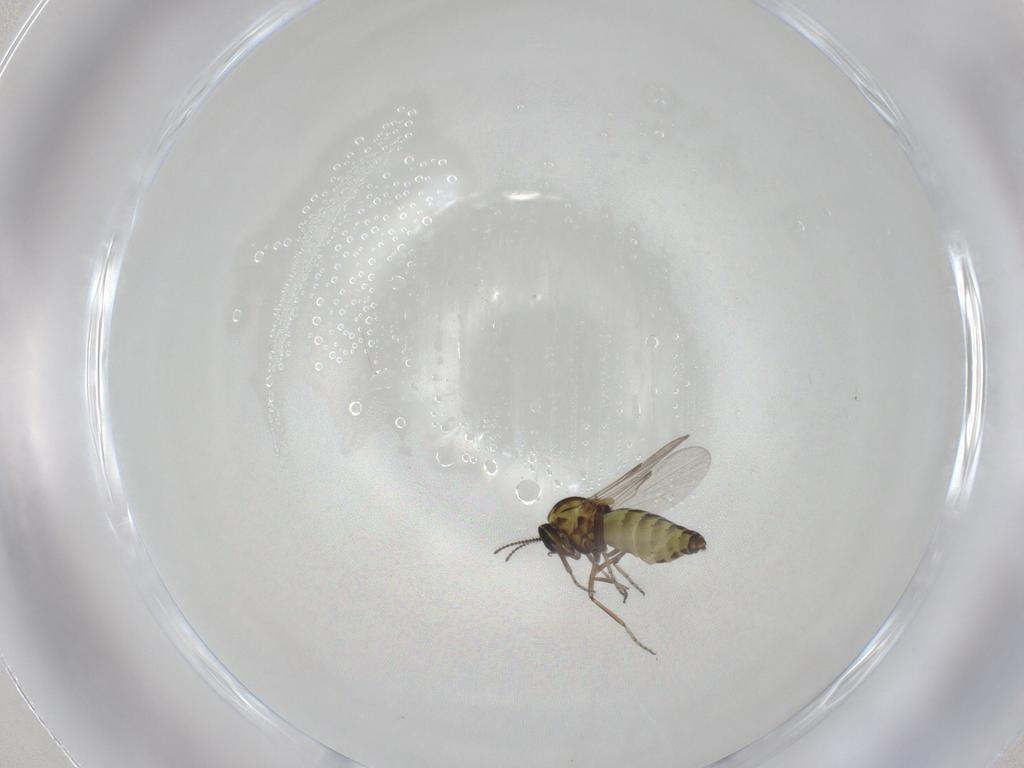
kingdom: Animalia
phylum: Arthropoda
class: Insecta
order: Diptera
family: Ceratopogonidae
